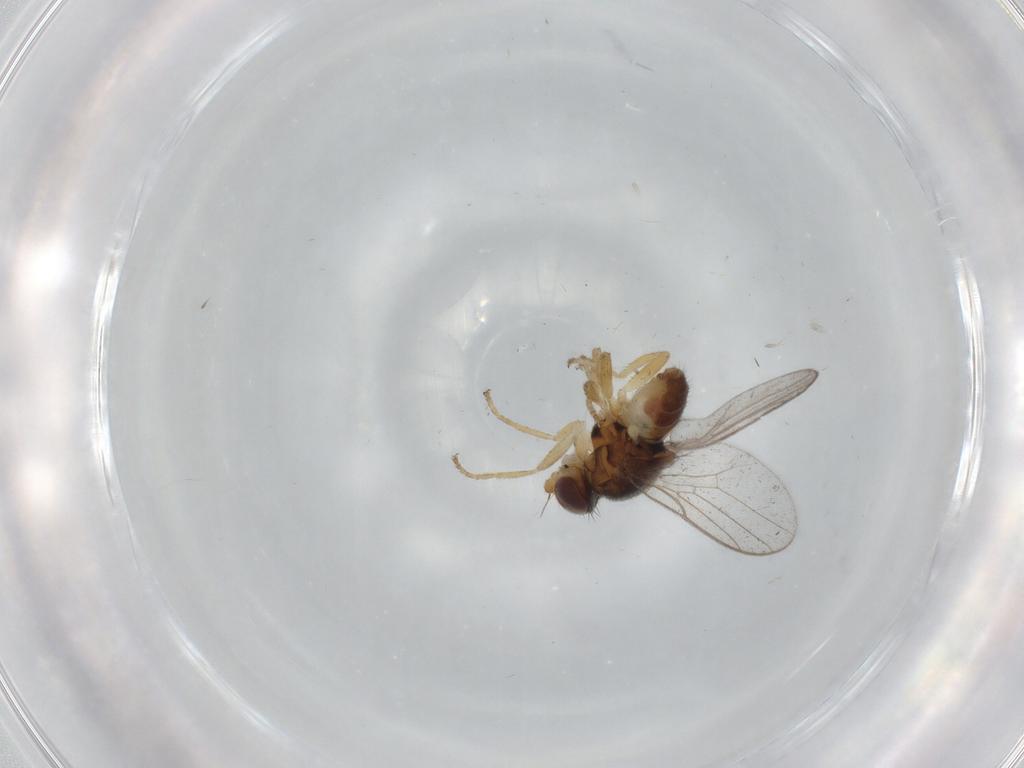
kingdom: Animalia
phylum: Arthropoda
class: Insecta
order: Diptera
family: Chloropidae
